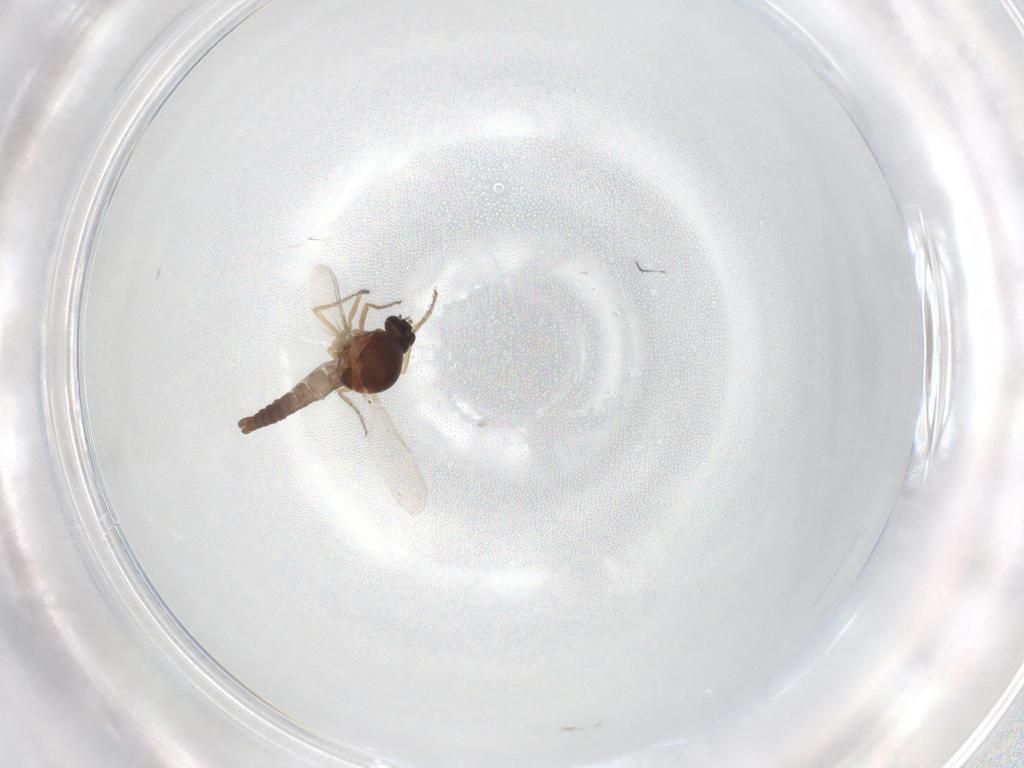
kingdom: Animalia
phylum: Arthropoda
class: Insecta
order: Diptera
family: Ceratopogonidae
